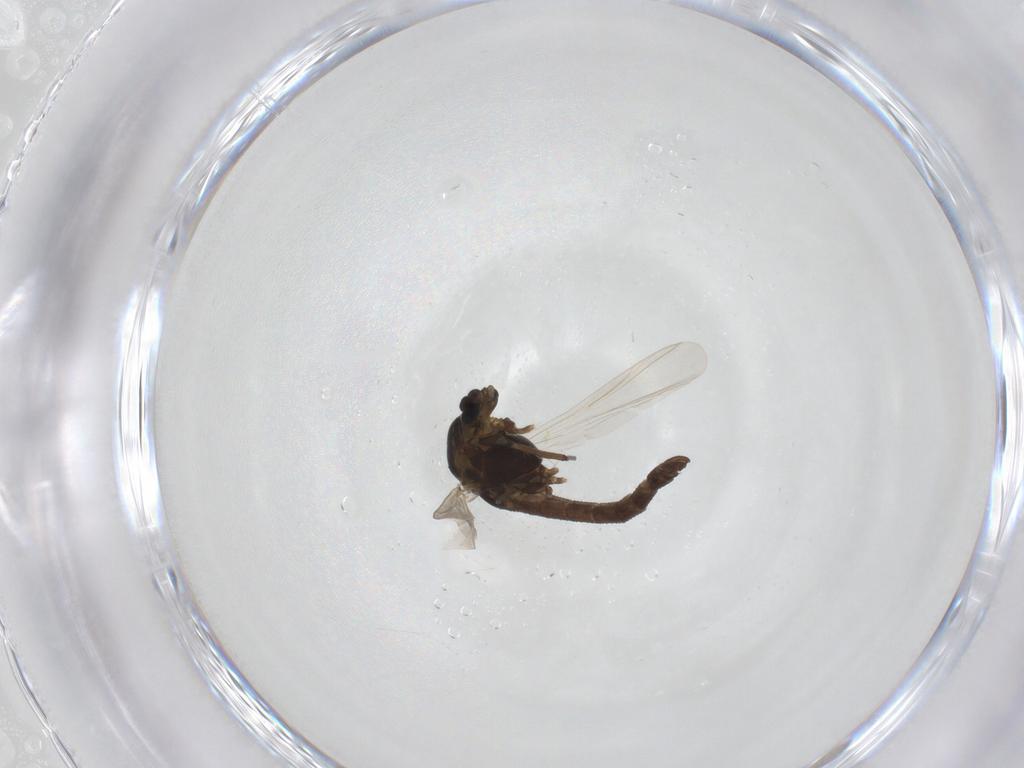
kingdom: Animalia
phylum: Arthropoda
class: Insecta
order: Diptera
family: Chironomidae
